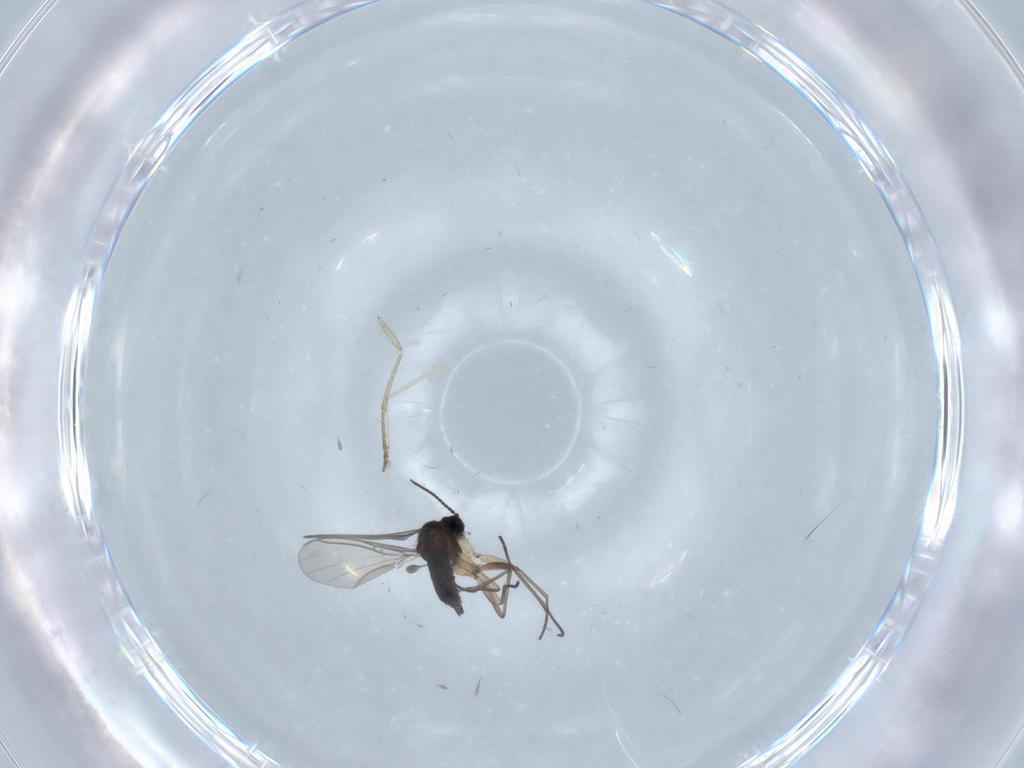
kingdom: Animalia
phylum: Arthropoda
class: Insecta
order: Diptera
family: Sciaridae
